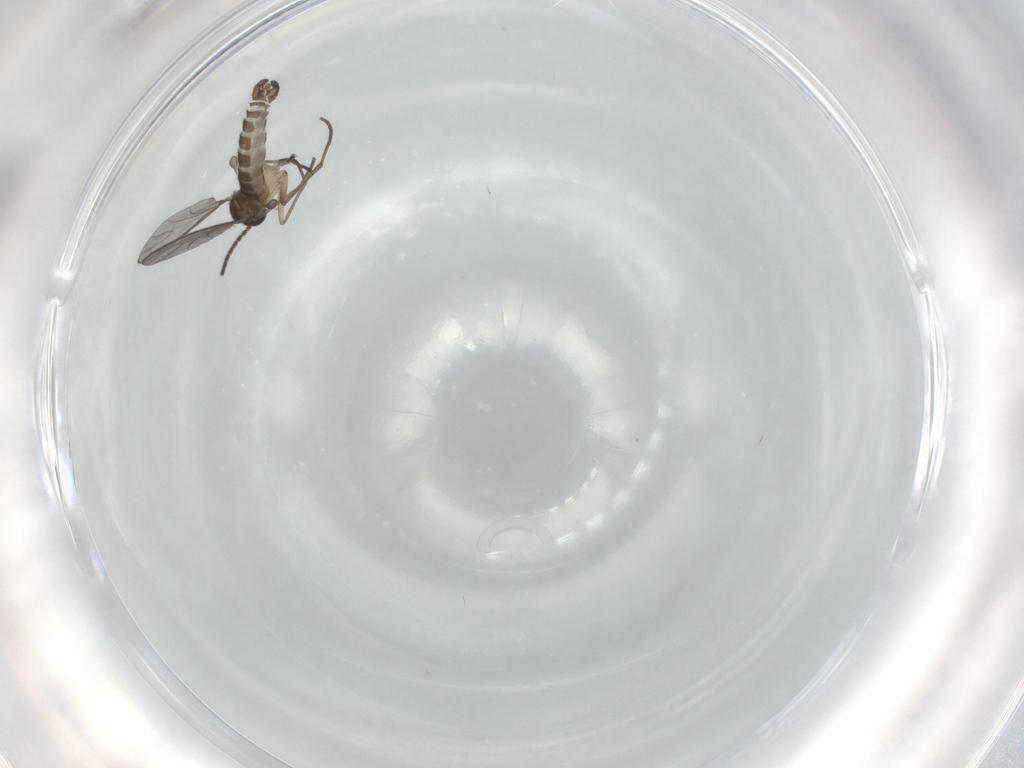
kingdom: Animalia
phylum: Arthropoda
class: Insecta
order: Diptera
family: Sciaridae
